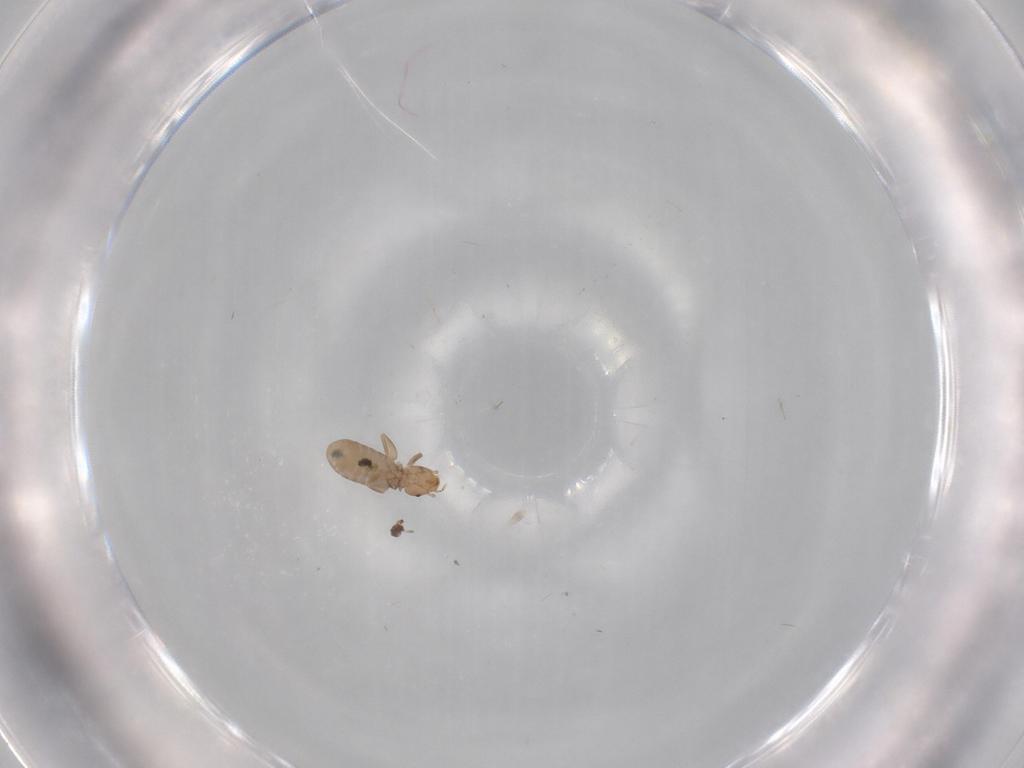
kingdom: Animalia
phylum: Arthropoda
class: Insecta
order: Psocodea
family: Liposcelididae
